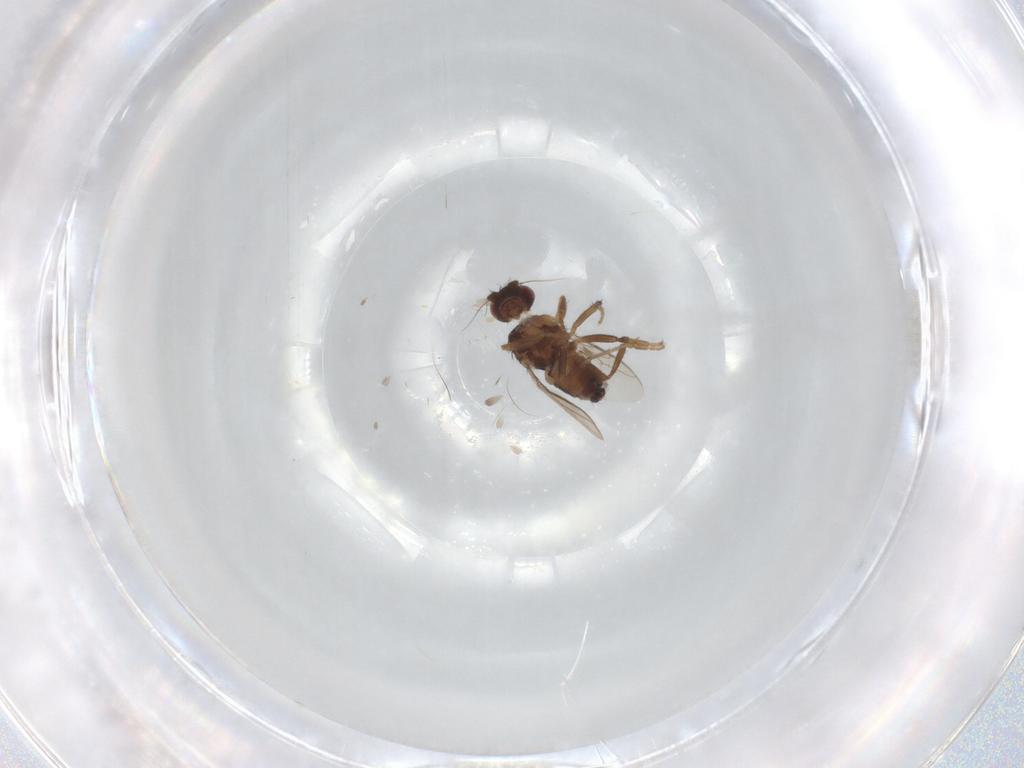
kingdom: Animalia
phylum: Arthropoda
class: Insecta
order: Diptera
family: Sphaeroceridae
